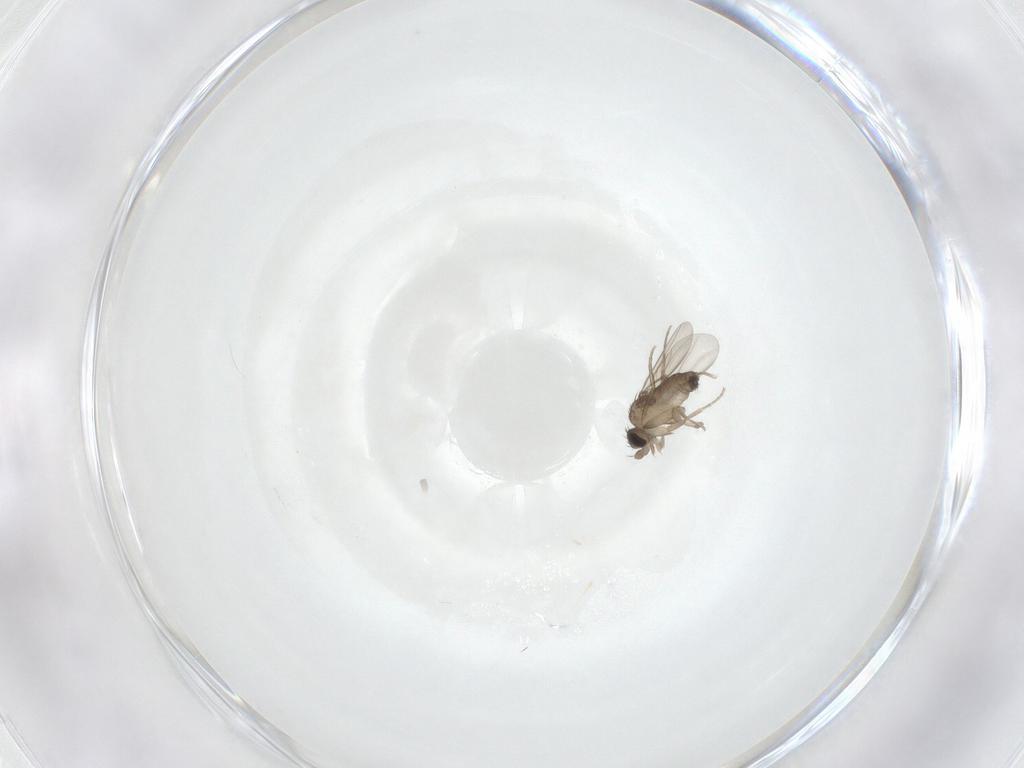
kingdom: Animalia
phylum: Arthropoda
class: Insecta
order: Diptera
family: Phoridae
